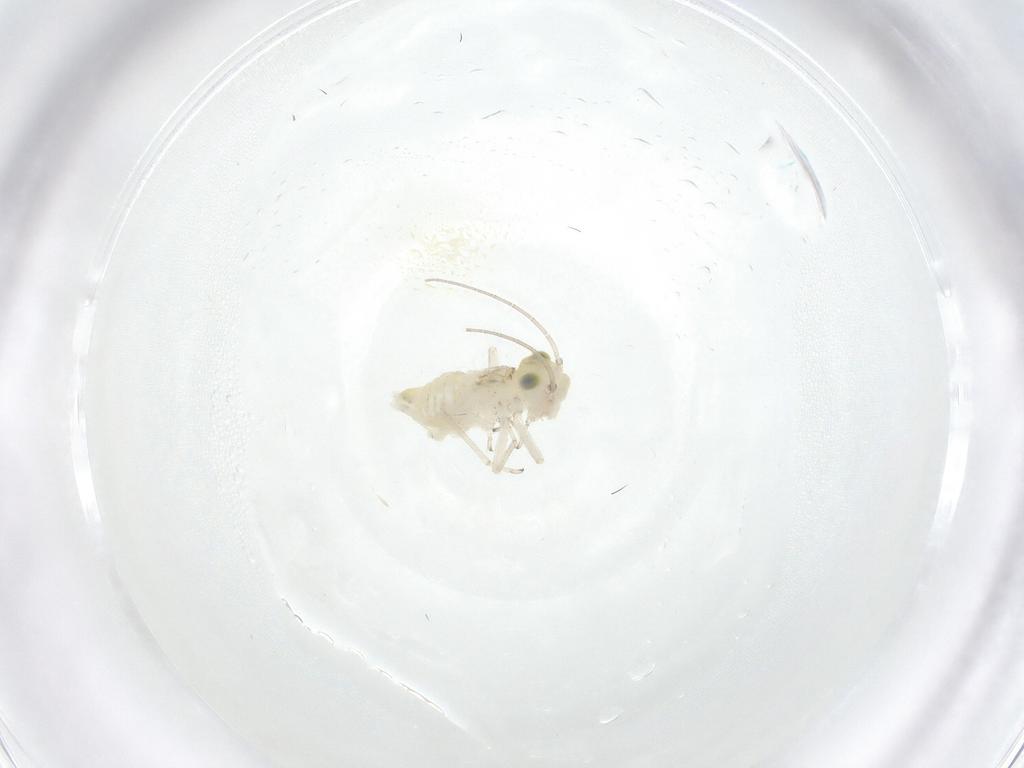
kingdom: Animalia
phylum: Arthropoda
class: Insecta
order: Psocodea
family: Caeciliusidae
